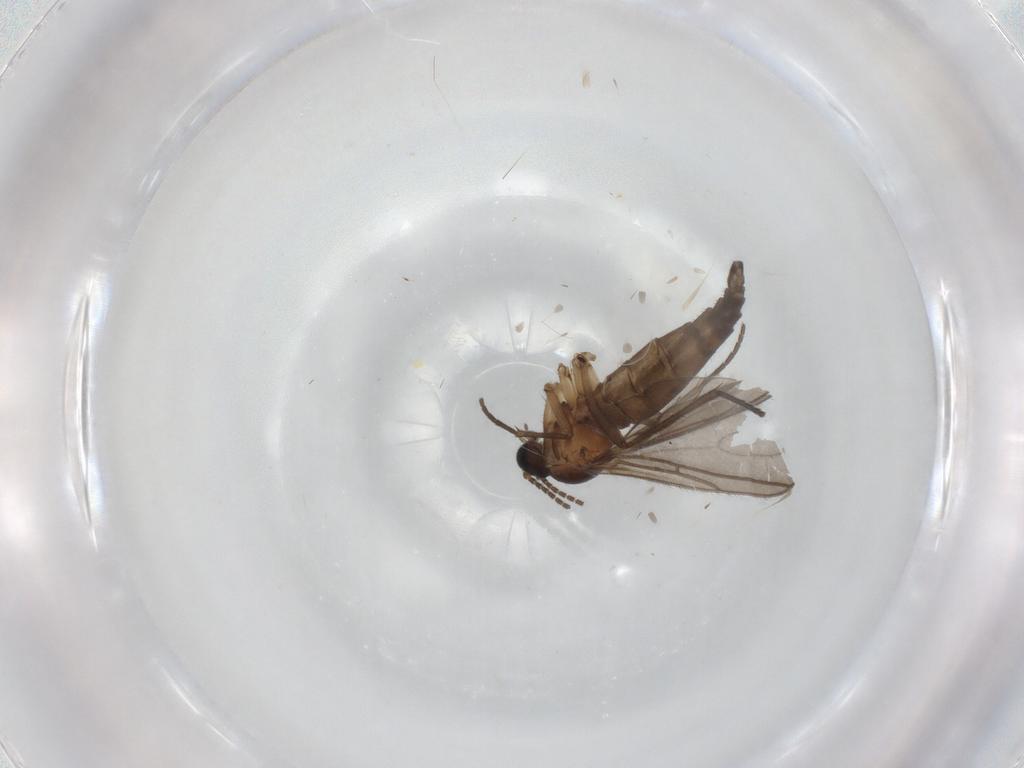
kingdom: Animalia
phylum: Arthropoda
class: Insecta
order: Diptera
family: Sciaridae
